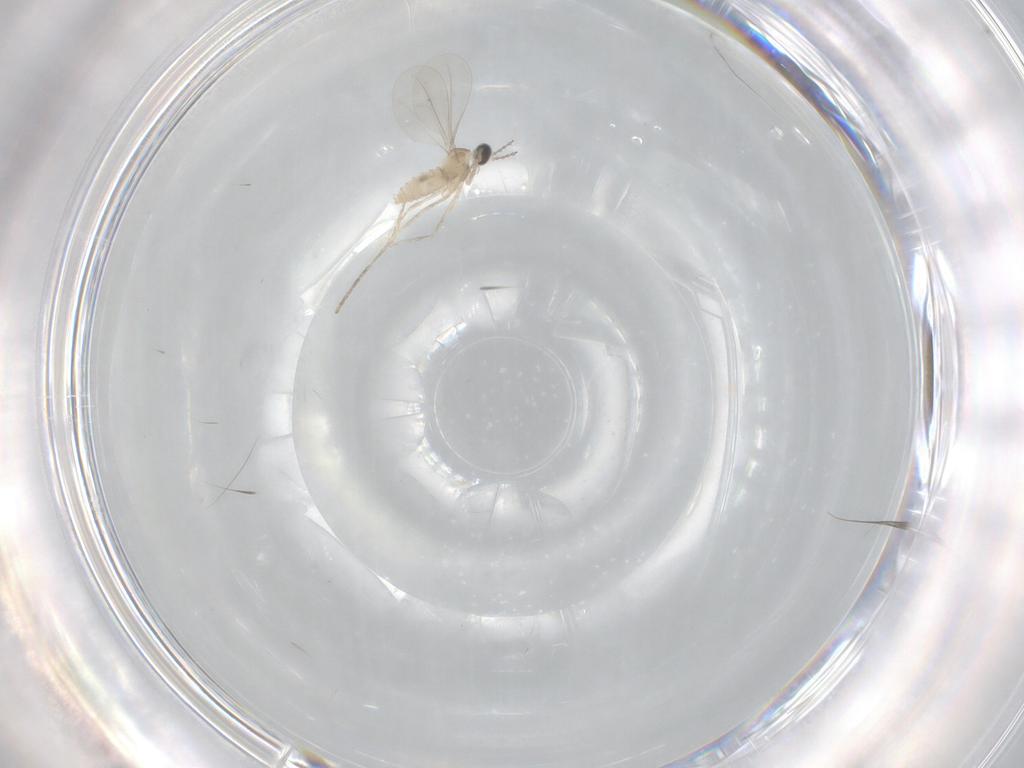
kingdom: Animalia
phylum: Arthropoda
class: Insecta
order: Diptera
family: Cecidomyiidae
